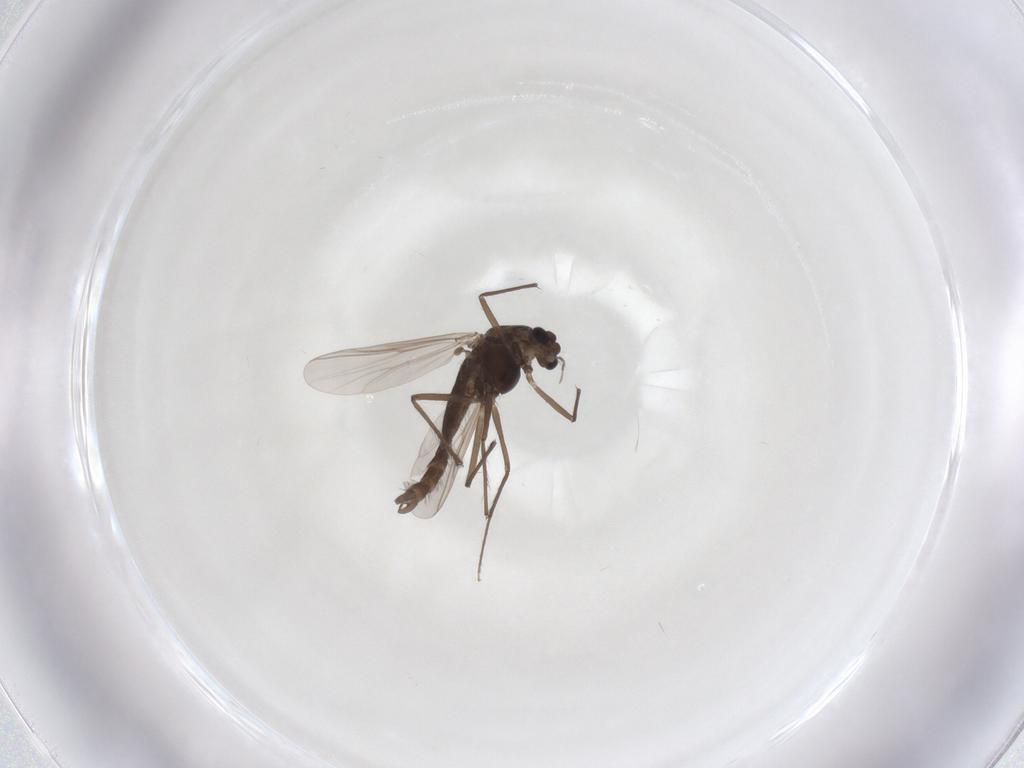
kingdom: Animalia
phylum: Arthropoda
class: Insecta
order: Diptera
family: Chironomidae
